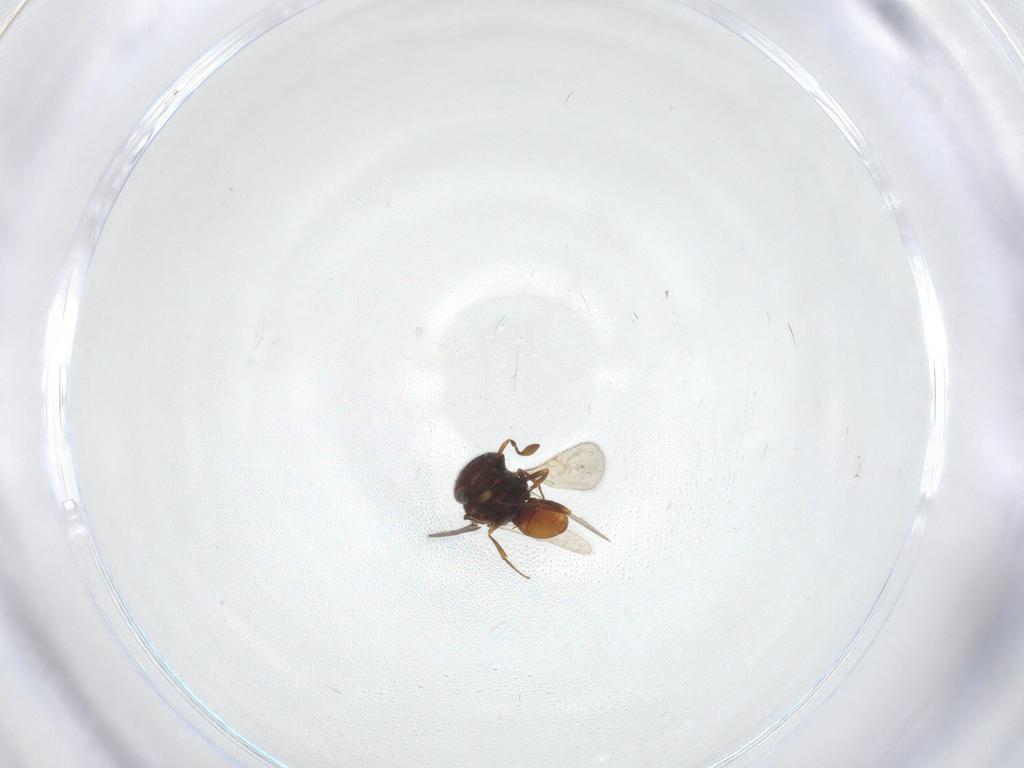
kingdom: Animalia
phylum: Arthropoda
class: Insecta
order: Hymenoptera
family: Scelionidae
